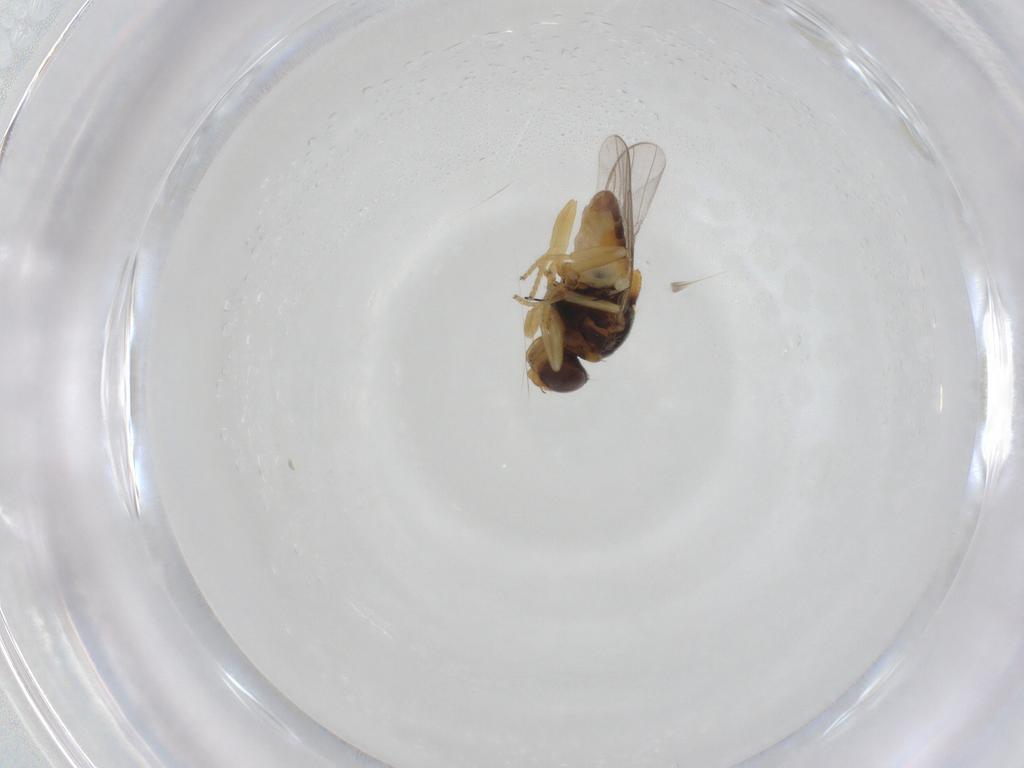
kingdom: Animalia
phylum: Arthropoda
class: Insecta
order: Diptera
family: Chloropidae
